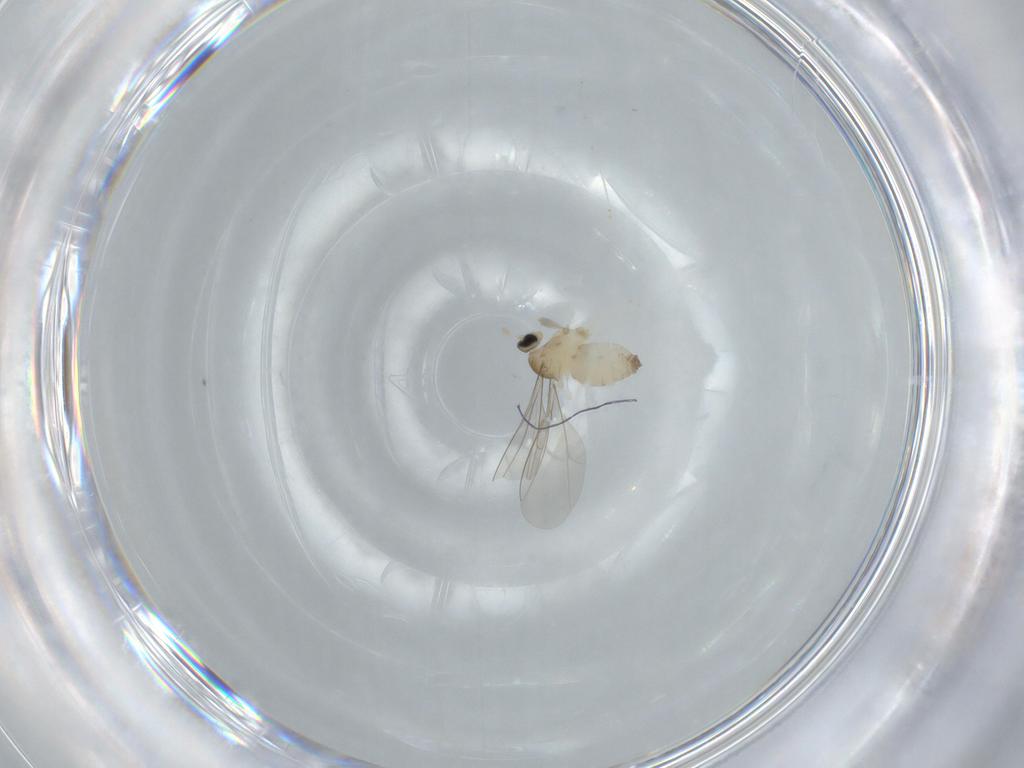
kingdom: Animalia
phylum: Arthropoda
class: Insecta
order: Diptera
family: Cecidomyiidae
